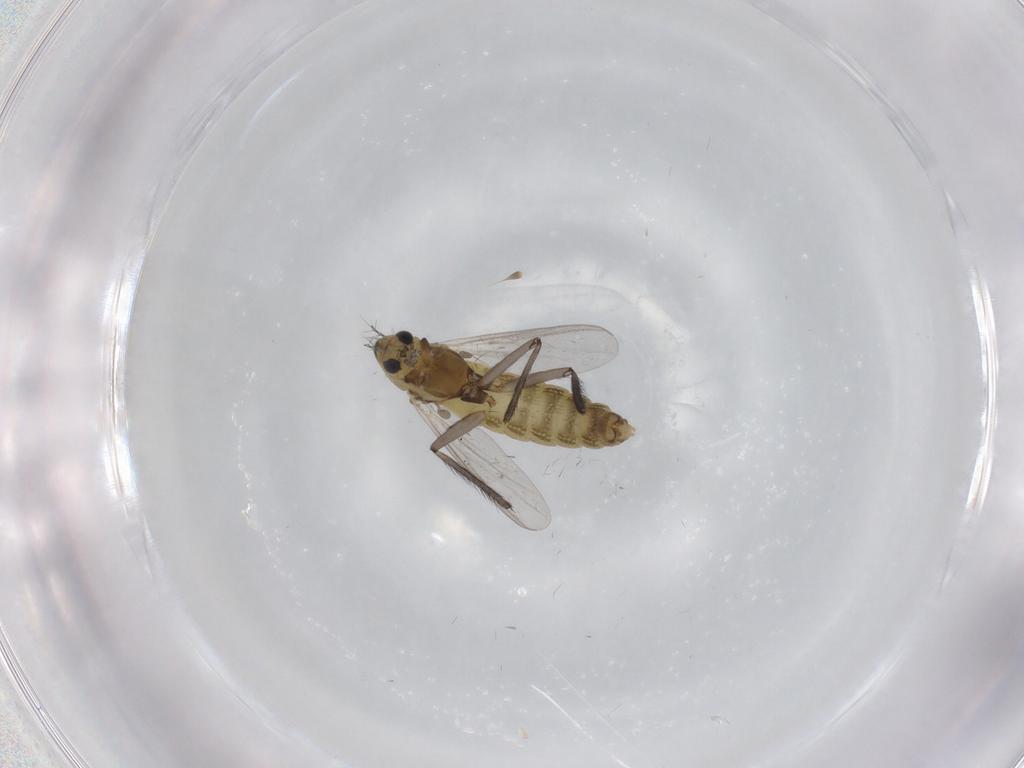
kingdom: Animalia
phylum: Arthropoda
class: Insecta
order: Diptera
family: Chironomidae
